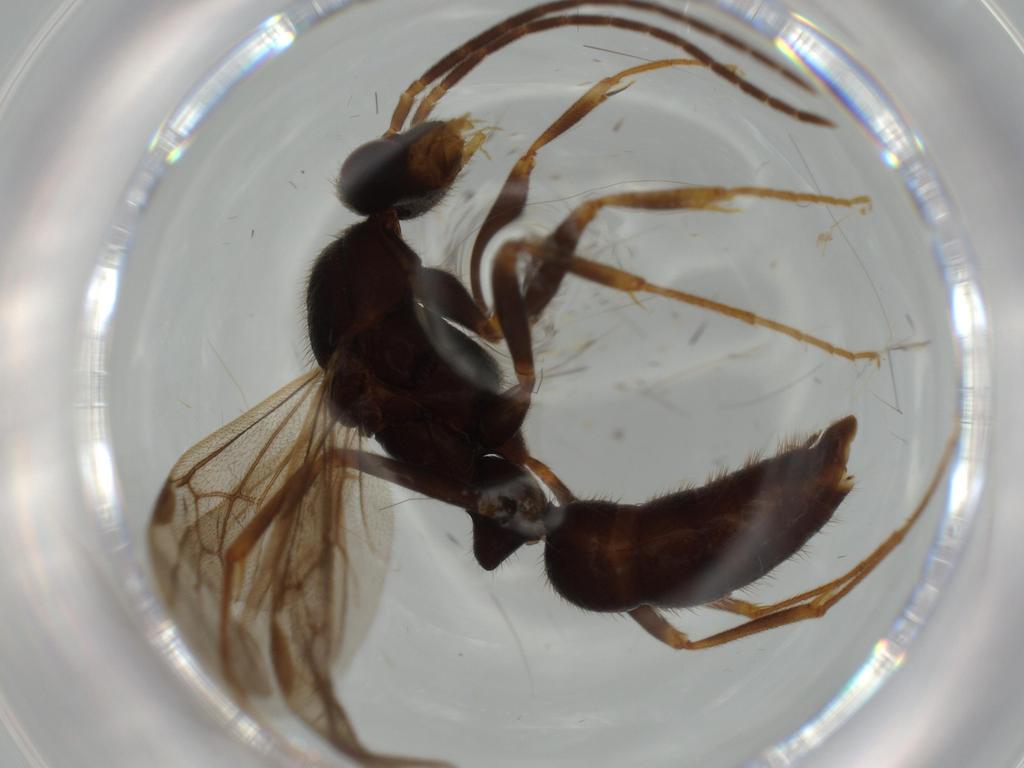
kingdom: Animalia
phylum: Arthropoda
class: Insecta
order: Hymenoptera
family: Formicidae
